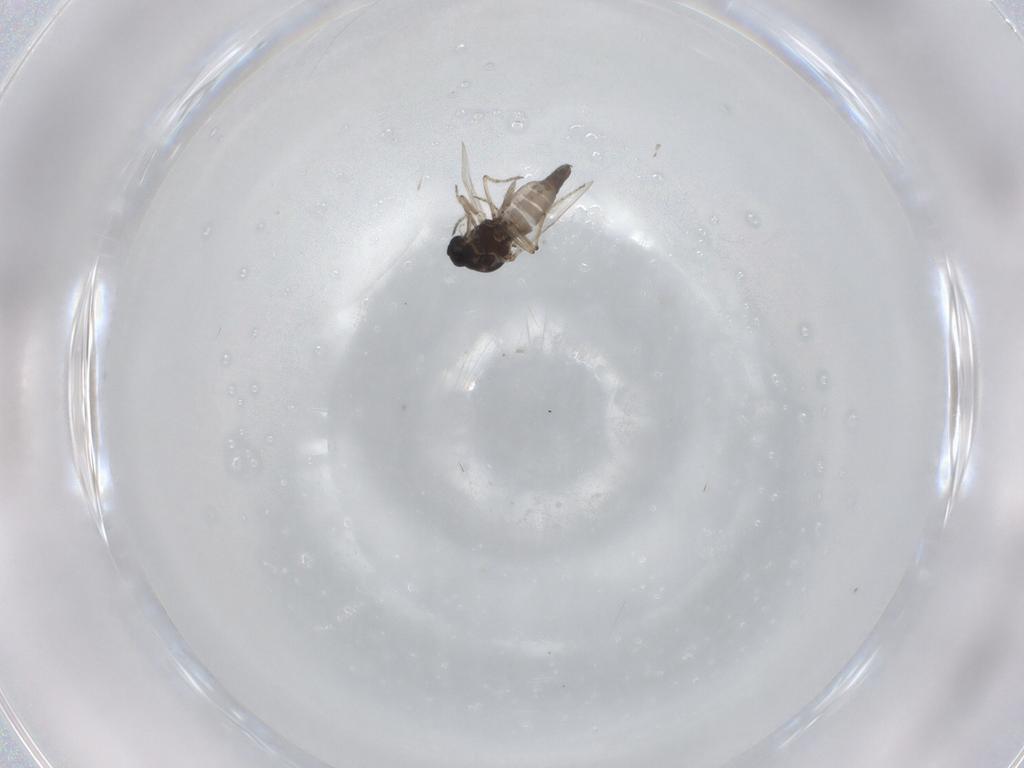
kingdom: Animalia
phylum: Arthropoda
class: Insecta
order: Diptera
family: Ceratopogonidae
